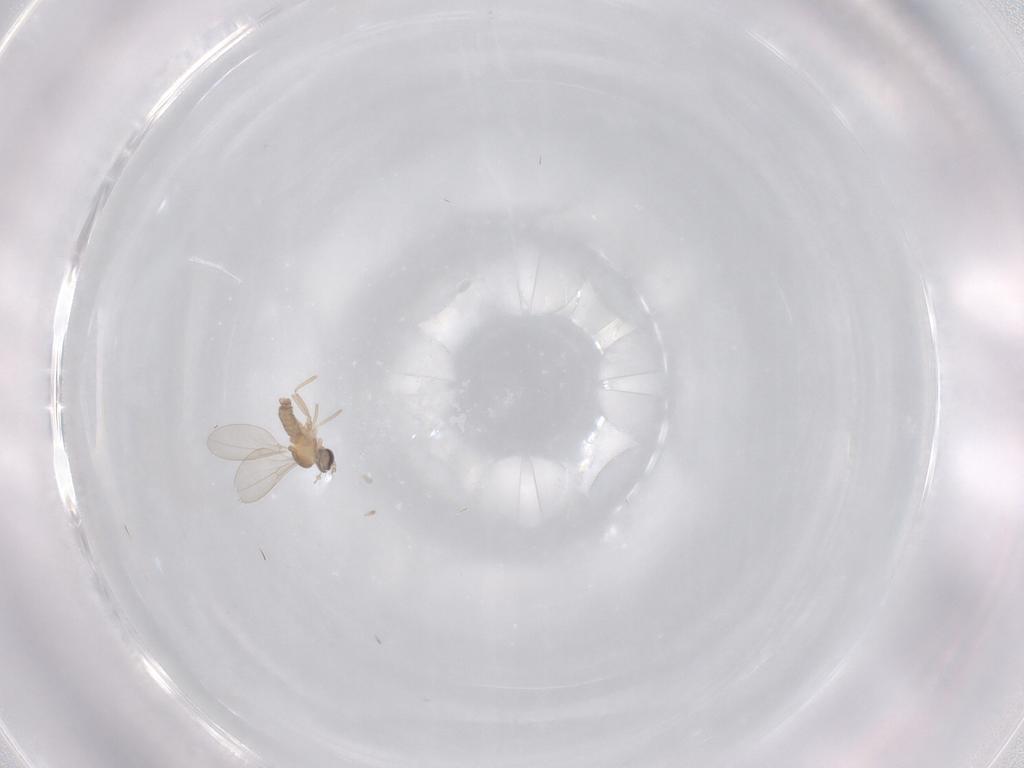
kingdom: Animalia
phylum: Arthropoda
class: Insecta
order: Diptera
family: Cecidomyiidae
